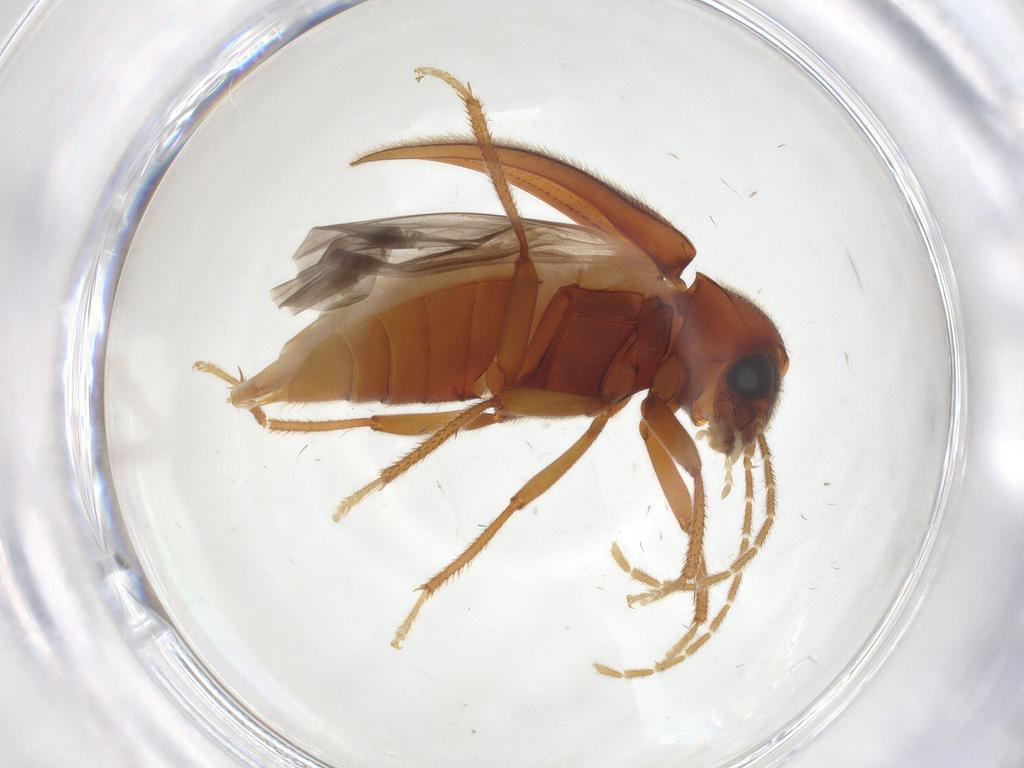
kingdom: Animalia
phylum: Arthropoda
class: Insecta
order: Coleoptera
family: Ptilodactylidae
